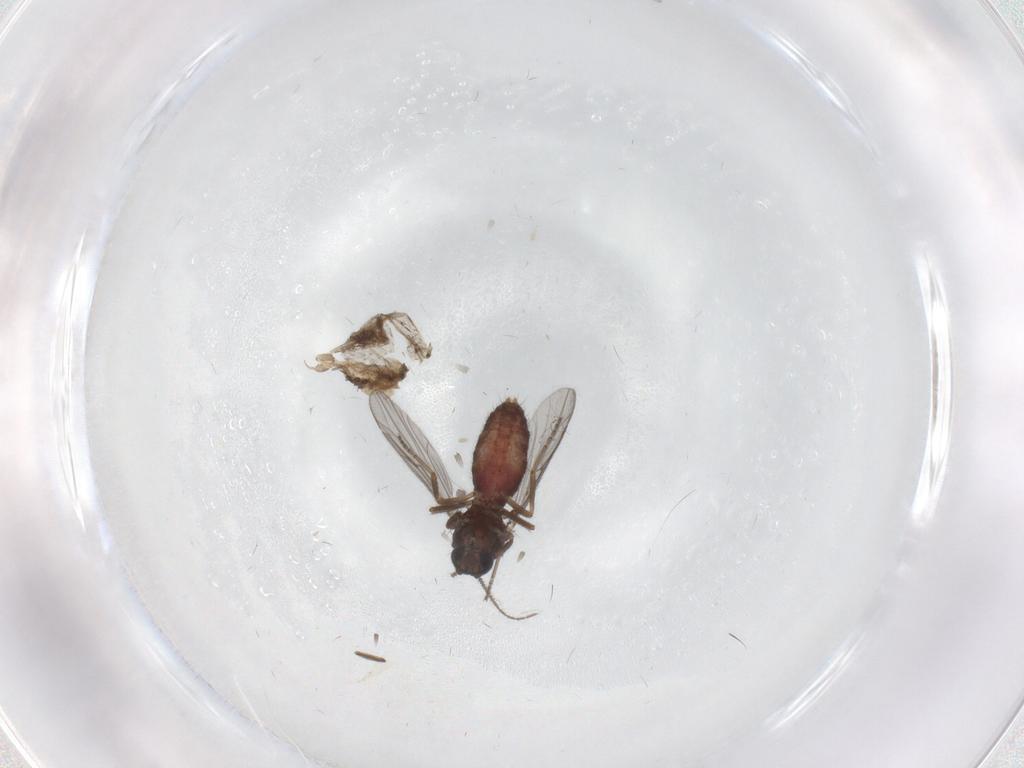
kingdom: Animalia
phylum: Arthropoda
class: Insecta
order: Diptera
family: Ceratopogonidae
